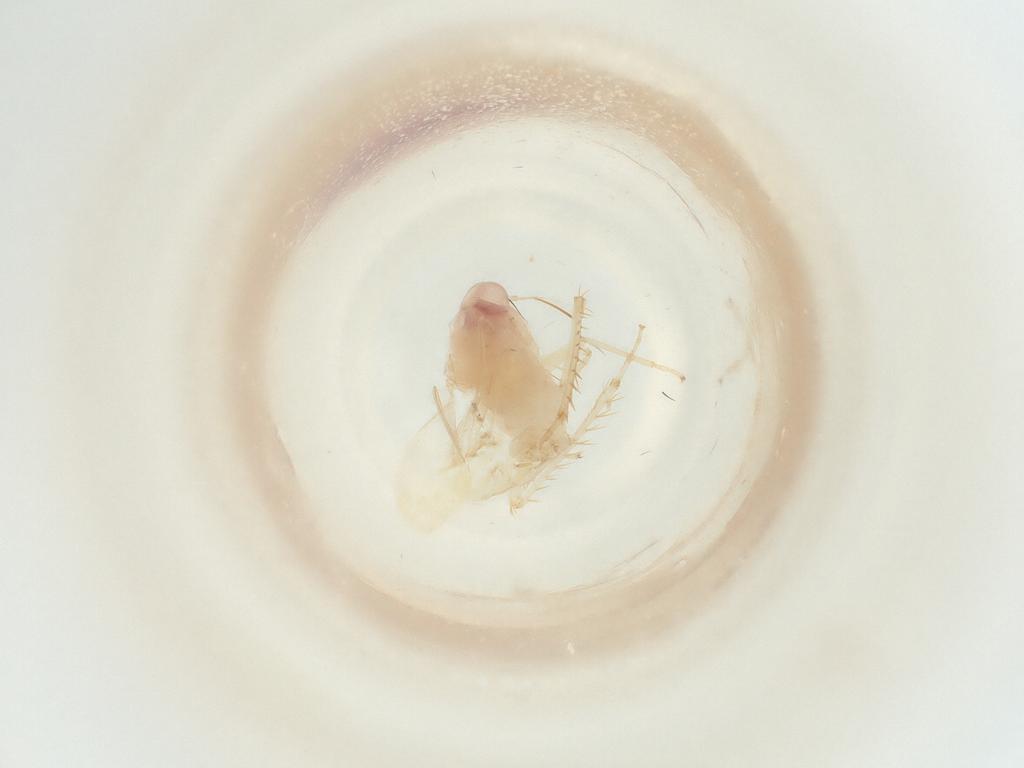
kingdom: Animalia
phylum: Arthropoda
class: Insecta
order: Hemiptera
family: Cicadellidae
